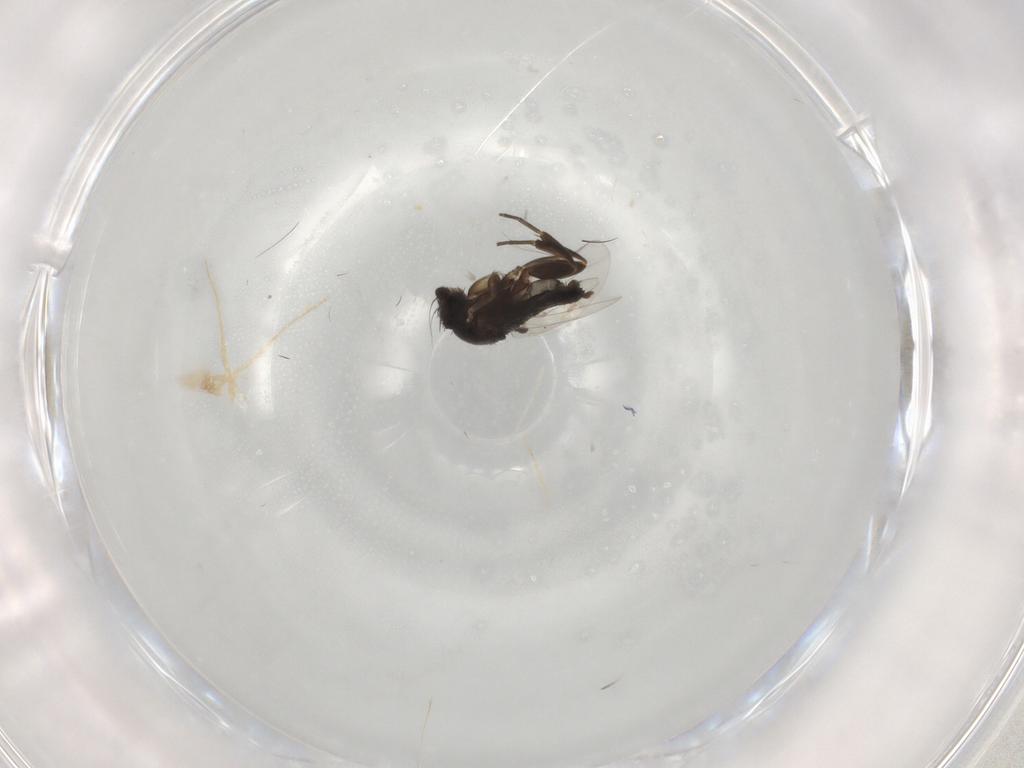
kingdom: Animalia
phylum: Arthropoda
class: Insecta
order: Diptera
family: Phoridae
